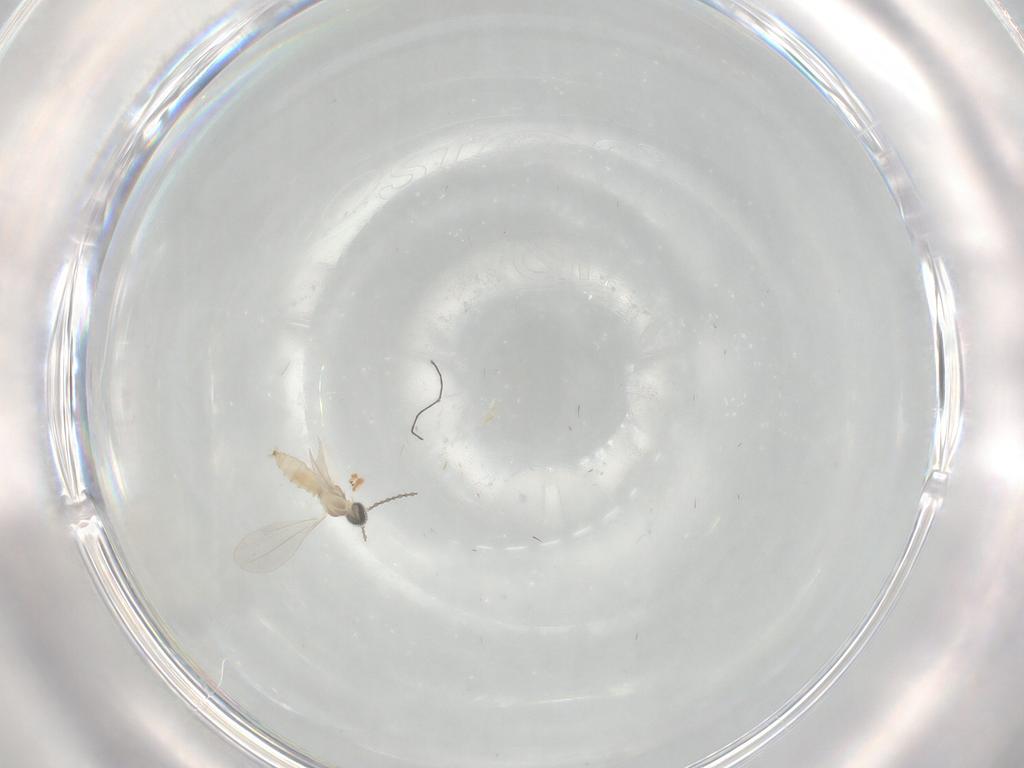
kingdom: Animalia
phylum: Arthropoda
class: Insecta
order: Diptera
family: Cecidomyiidae
